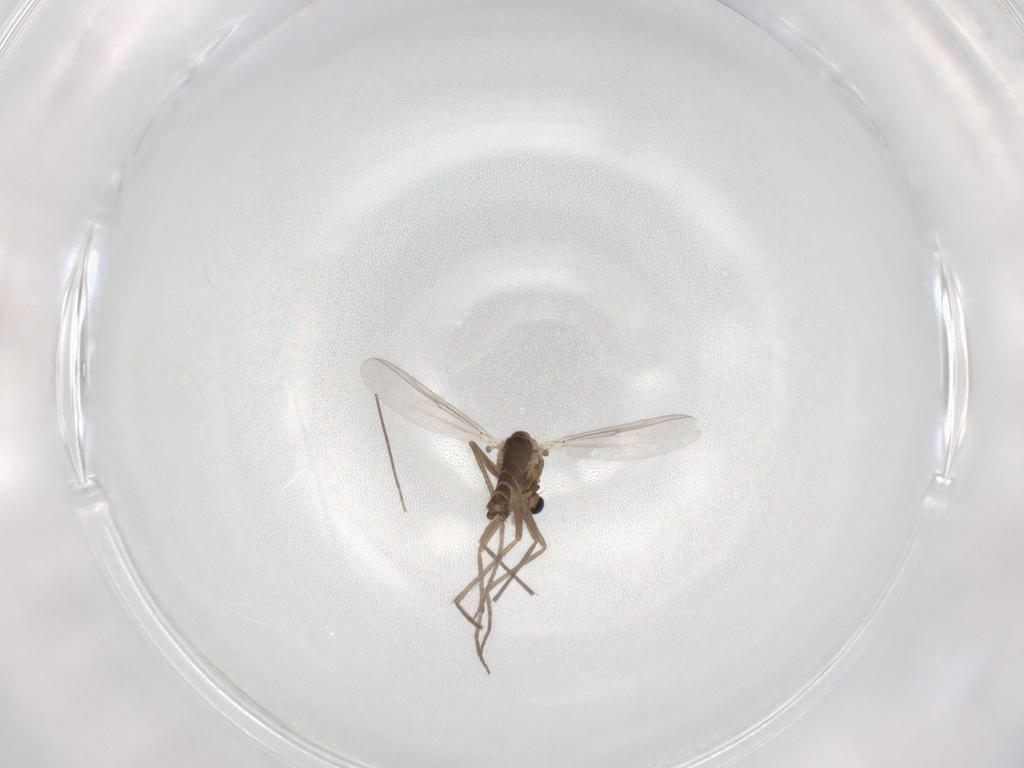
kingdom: Animalia
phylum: Arthropoda
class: Insecta
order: Diptera
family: Chironomidae
